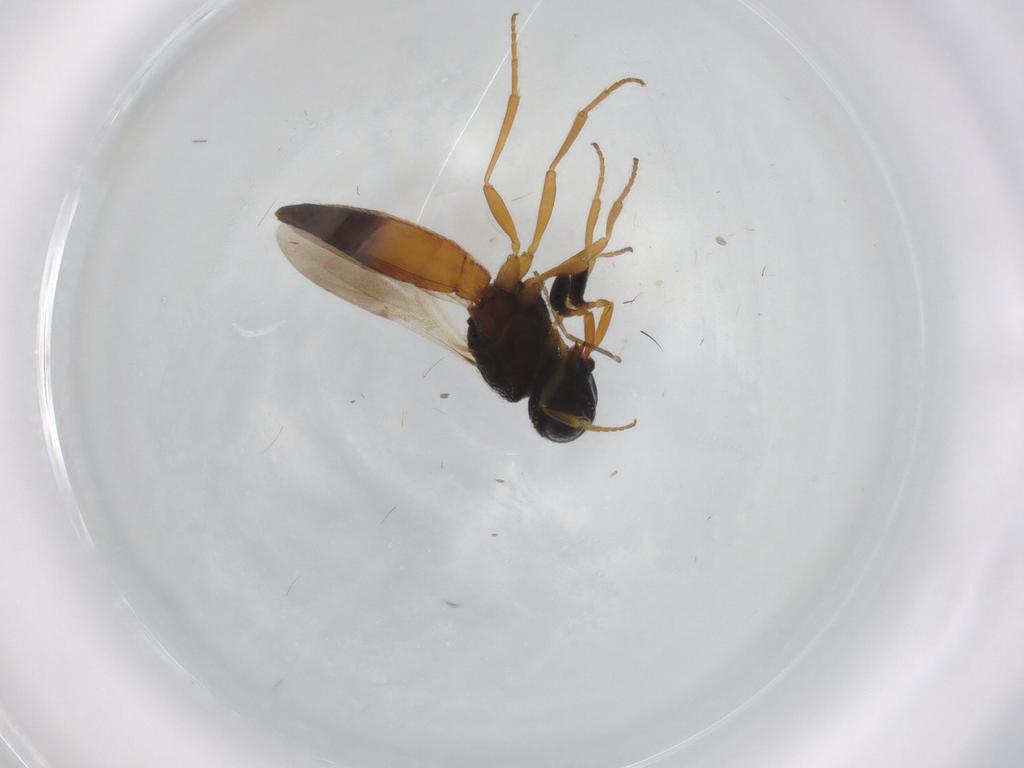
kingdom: Animalia
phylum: Arthropoda
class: Insecta
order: Hymenoptera
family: Scelionidae
